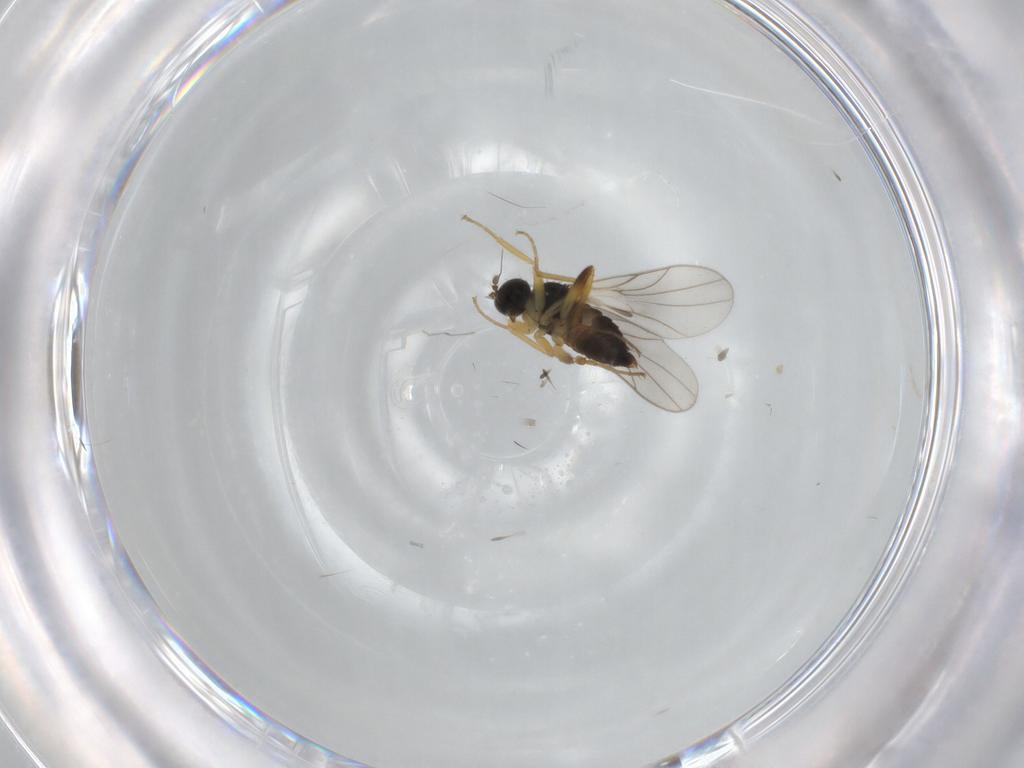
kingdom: Animalia
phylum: Arthropoda
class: Insecta
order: Diptera
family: Hybotidae
